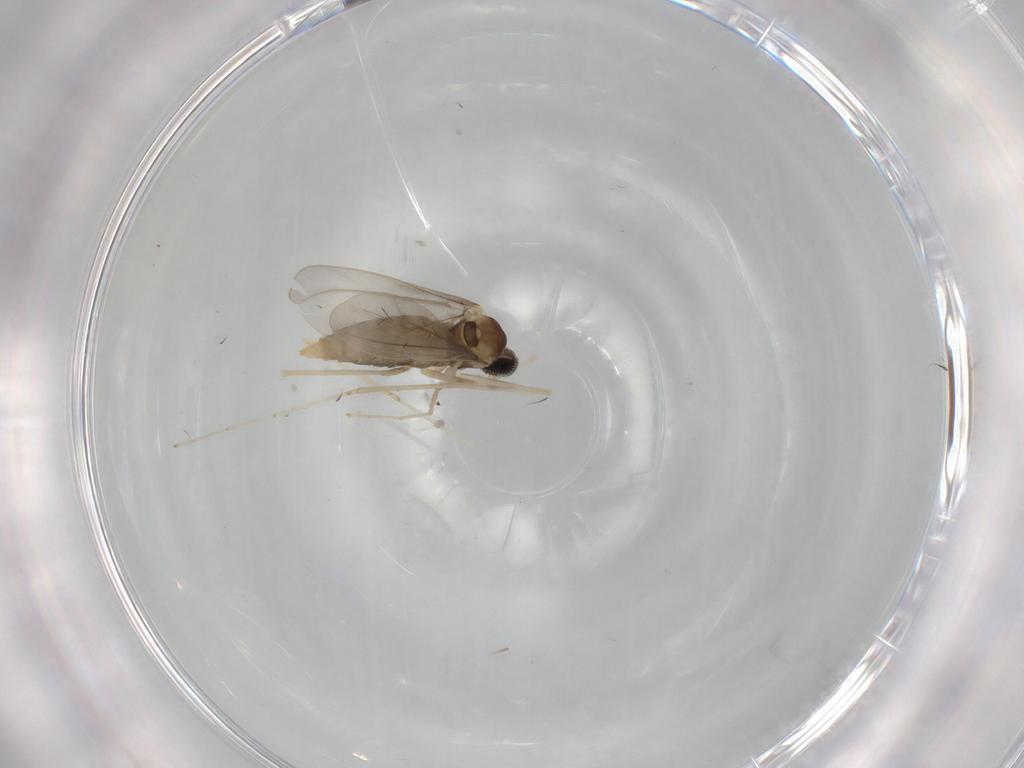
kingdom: Animalia
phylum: Arthropoda
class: Insecta
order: Diptera
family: Cecidomyiidae
